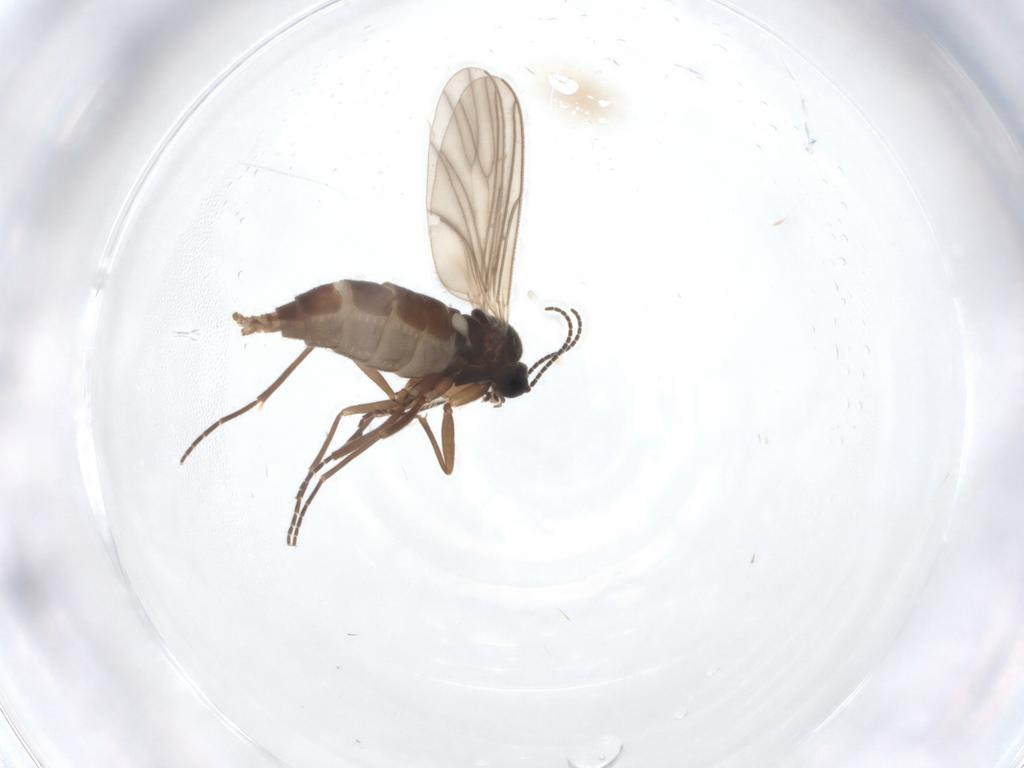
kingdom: Animalia
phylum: Arthropoda
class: Insecta
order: Diptera
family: Sciaridae
